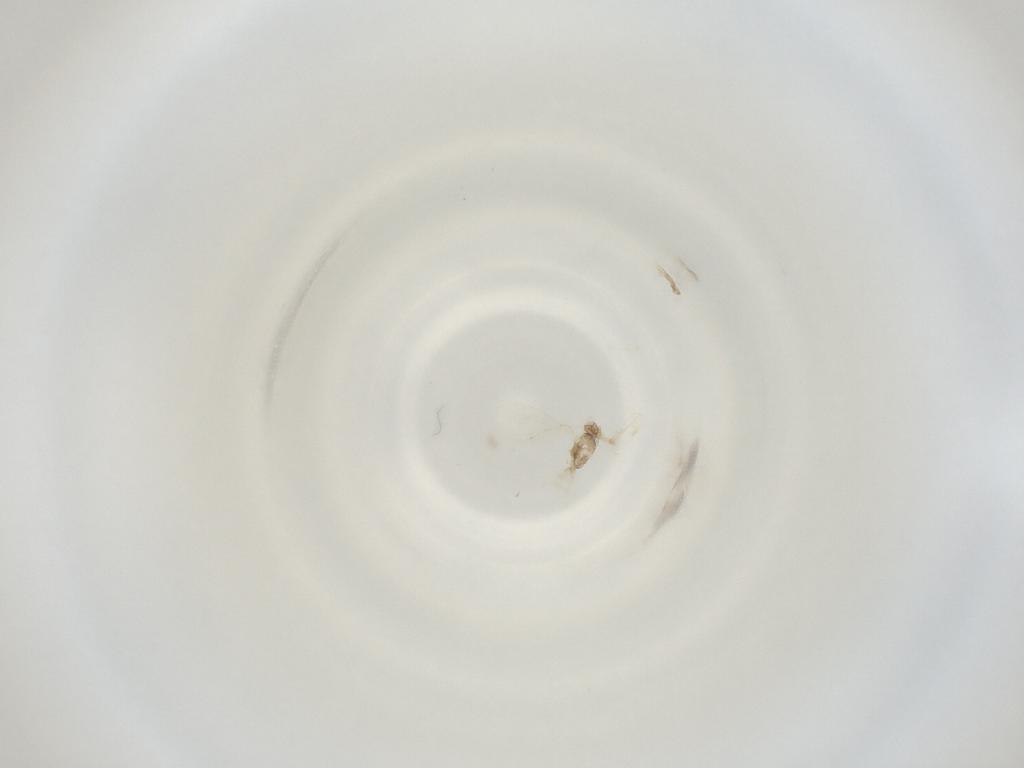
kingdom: Animalia
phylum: Arthropoda
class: Insecta
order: Diptera
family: Cecidomyiidae
